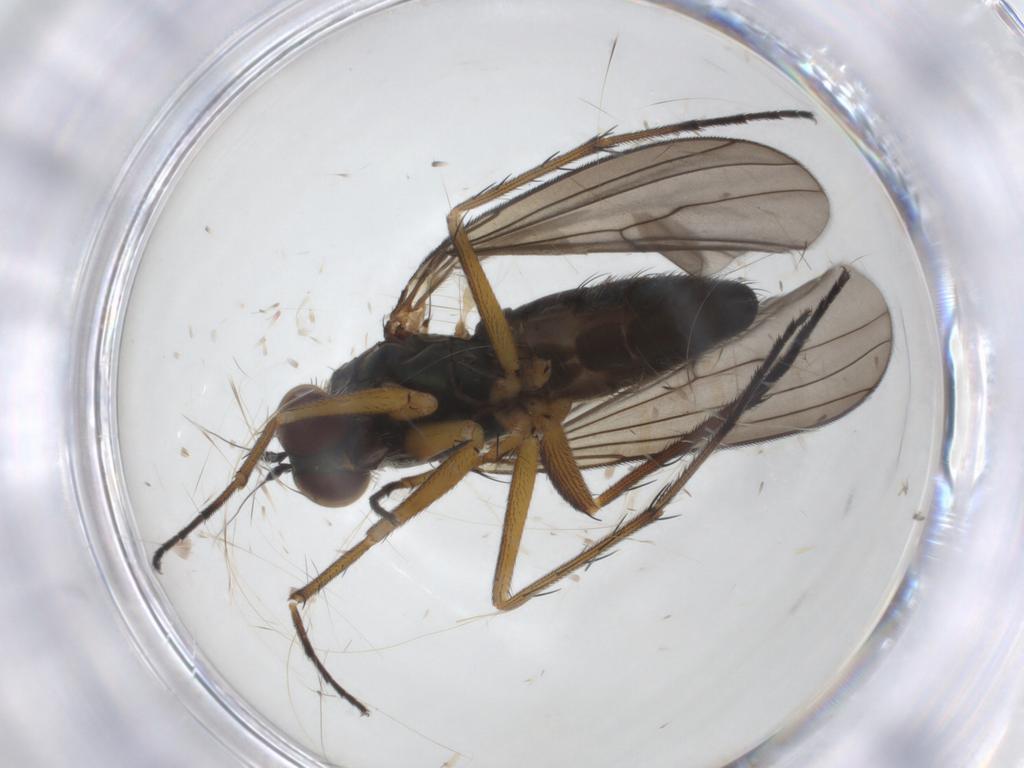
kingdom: Animalia
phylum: Arthropoda
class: Insecta
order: Diptera
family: Dolichopodidae
